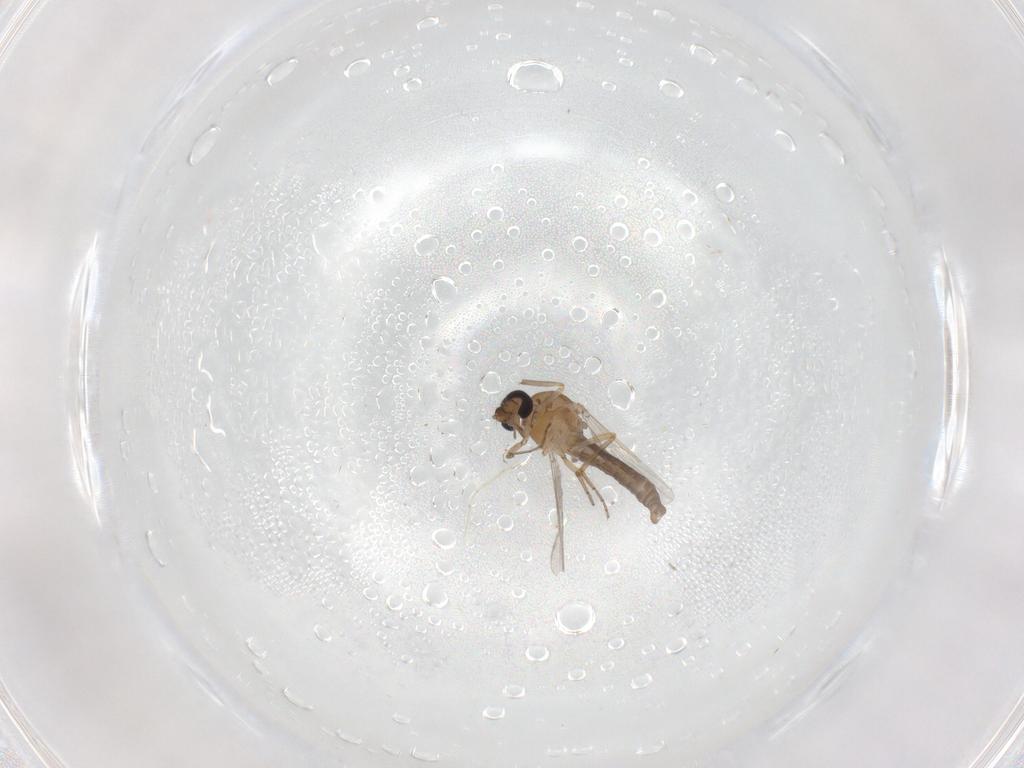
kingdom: Animalia
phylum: Arthropoda
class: Insecta
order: Diptera
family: Ceratopogonidae
